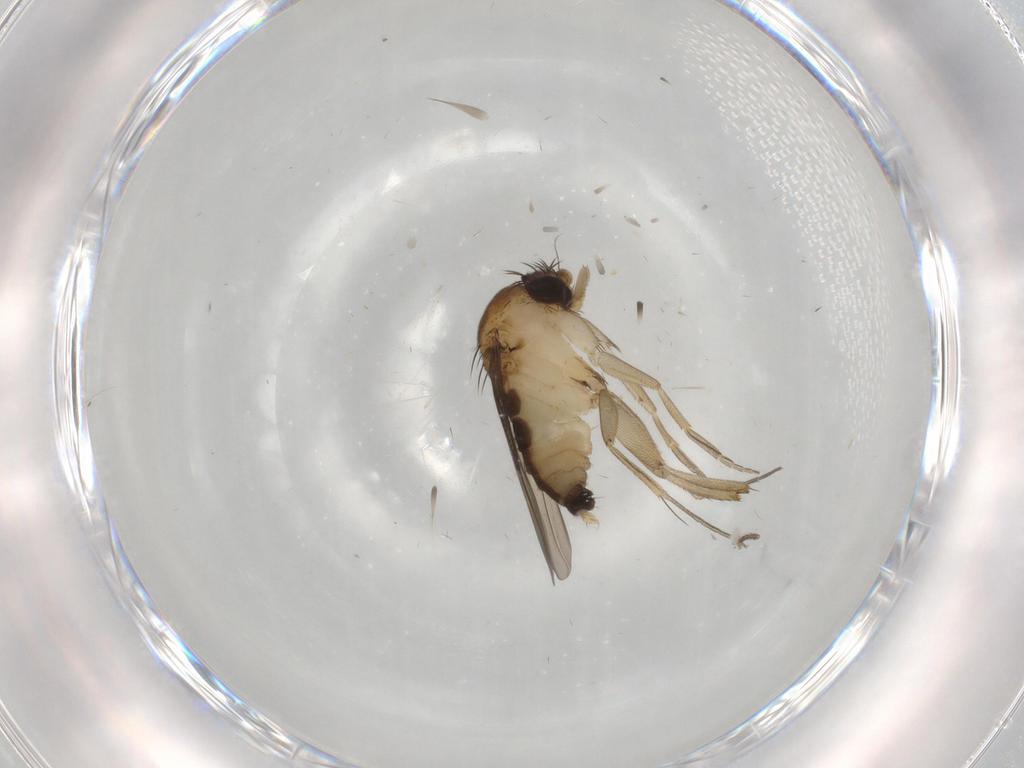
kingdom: Animalia
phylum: Arthropoda
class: Insecta
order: Diptera
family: Phoridae
